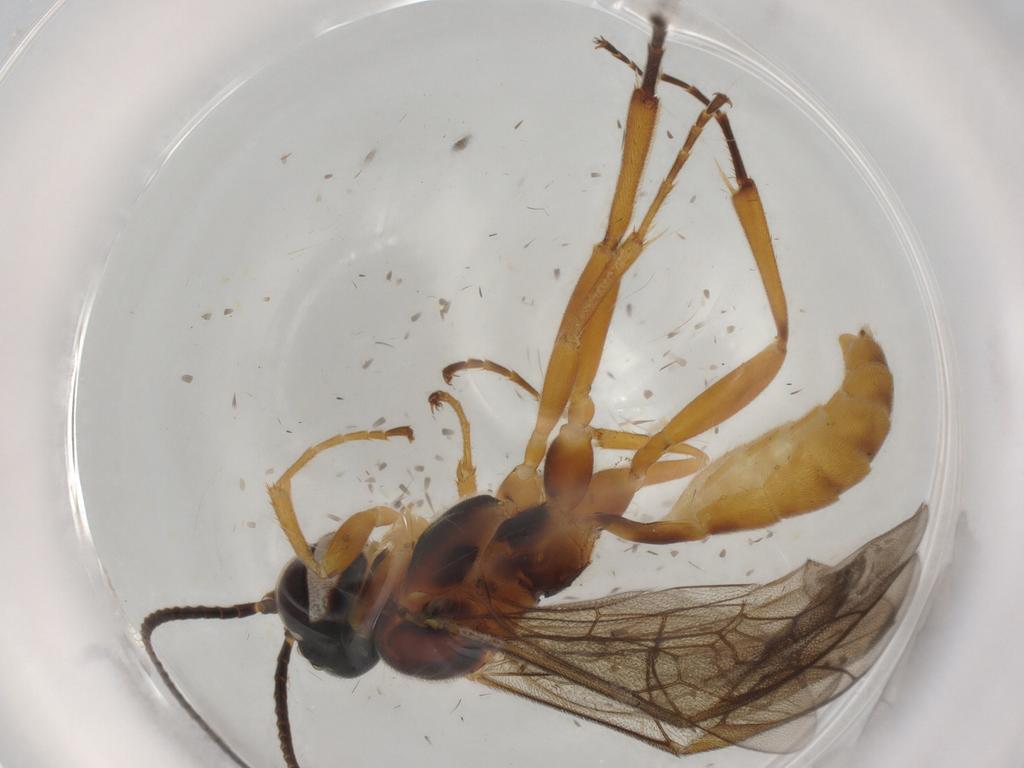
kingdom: Animalia
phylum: Arthropoda
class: Insecta
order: Hymenoptera
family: Ichneumonidae
